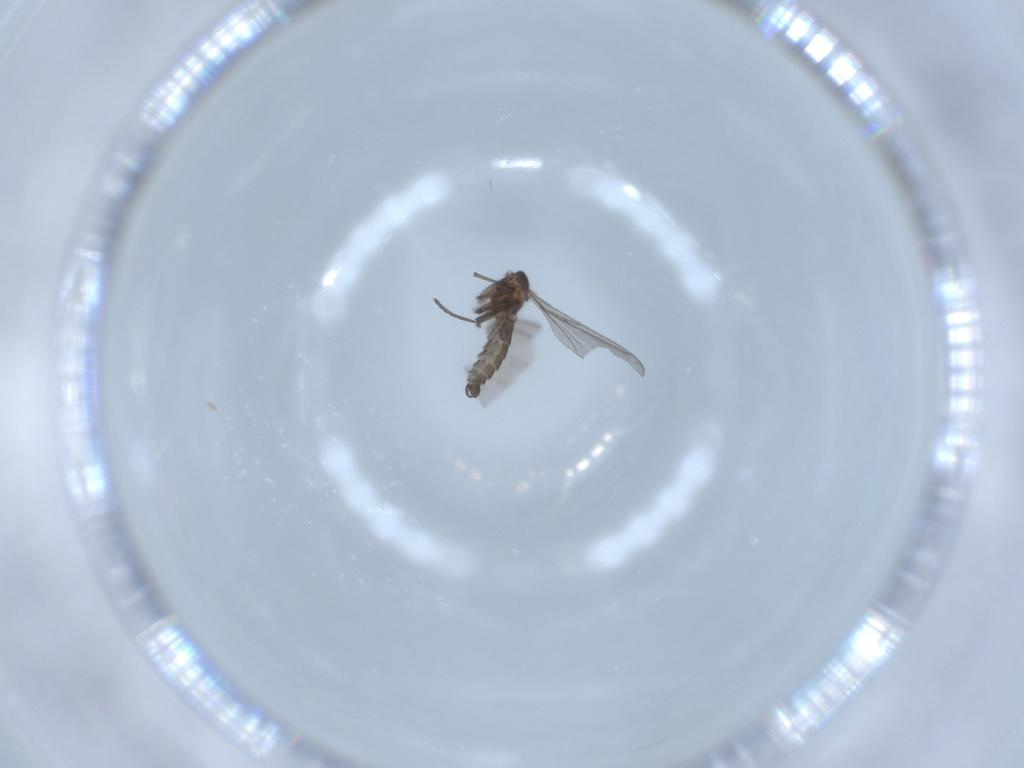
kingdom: Animalia
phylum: Arthropoda
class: Insecta
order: Diptera
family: Sciaridae
